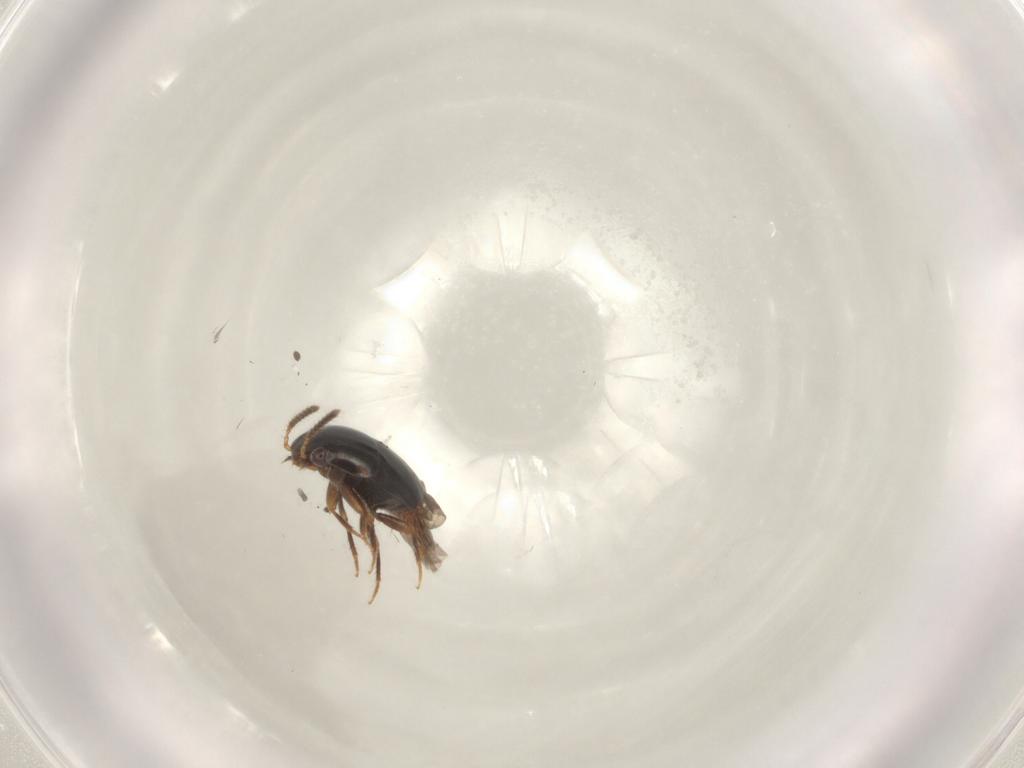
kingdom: Animalia
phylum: Arthropoda
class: Insecta
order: Coleoptera
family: Staphylinidae
